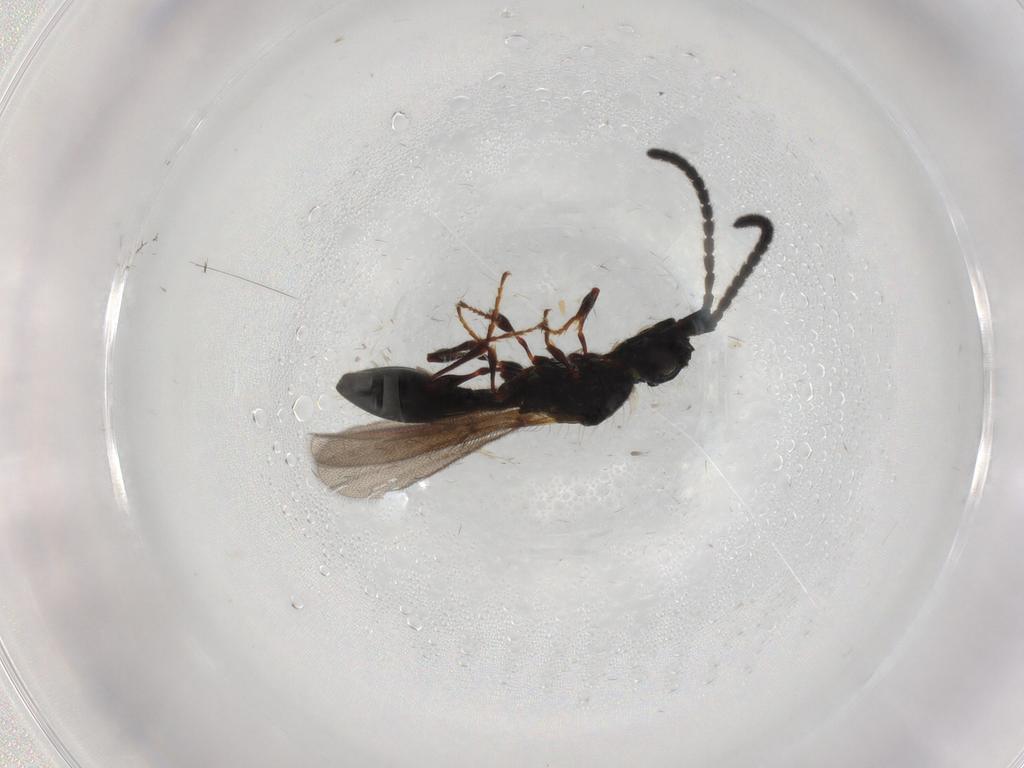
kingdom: Animalia
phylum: Arthropoda
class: Insecta
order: Hymenoptera
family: Diapriidae
